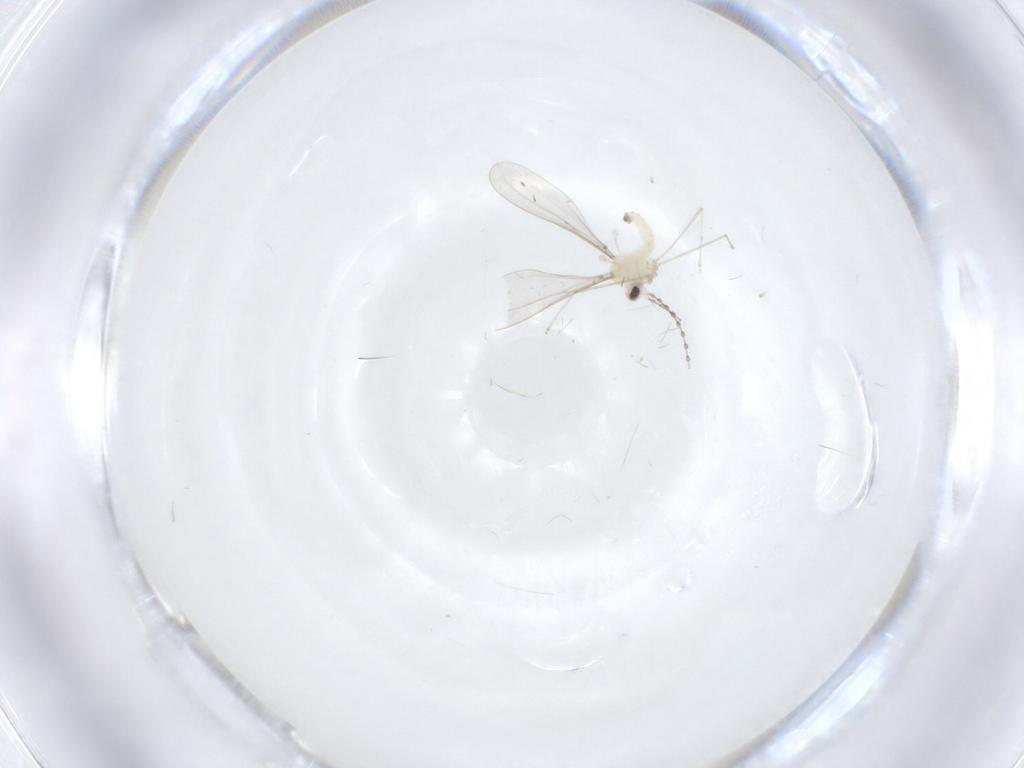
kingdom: Animalia
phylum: Arthropoda
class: Insecta
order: Diptera
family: Cecidomyiidae
